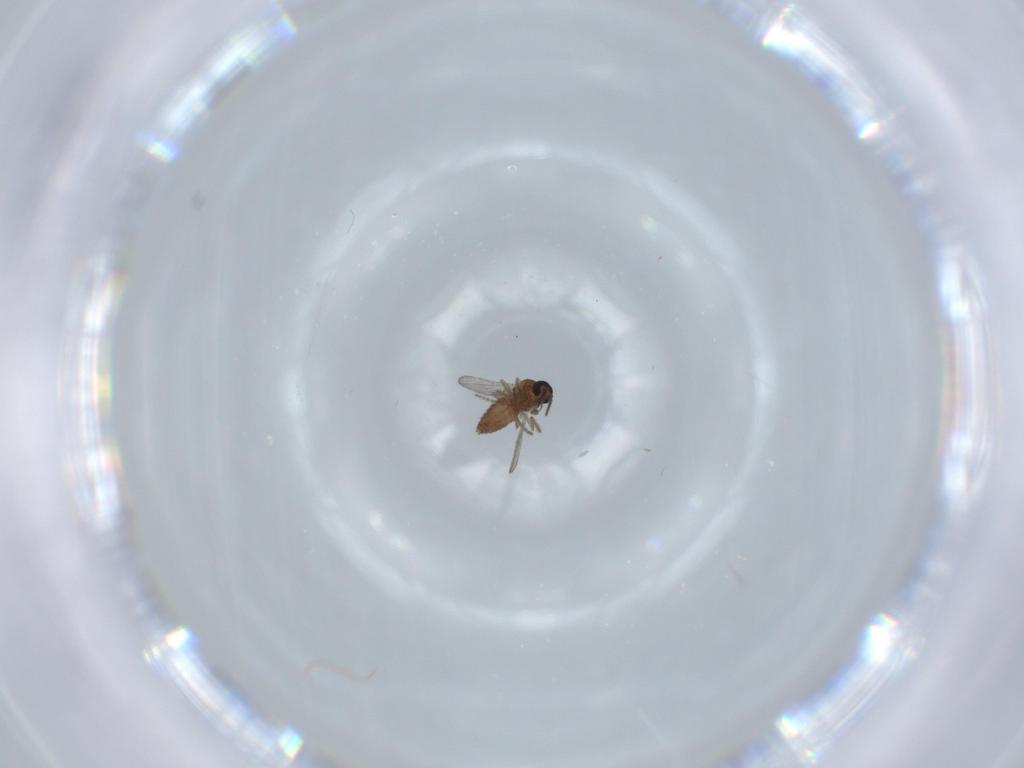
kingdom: Animalia
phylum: Arthropoda
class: Insecta
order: Diptera
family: Ceratopogonidae
